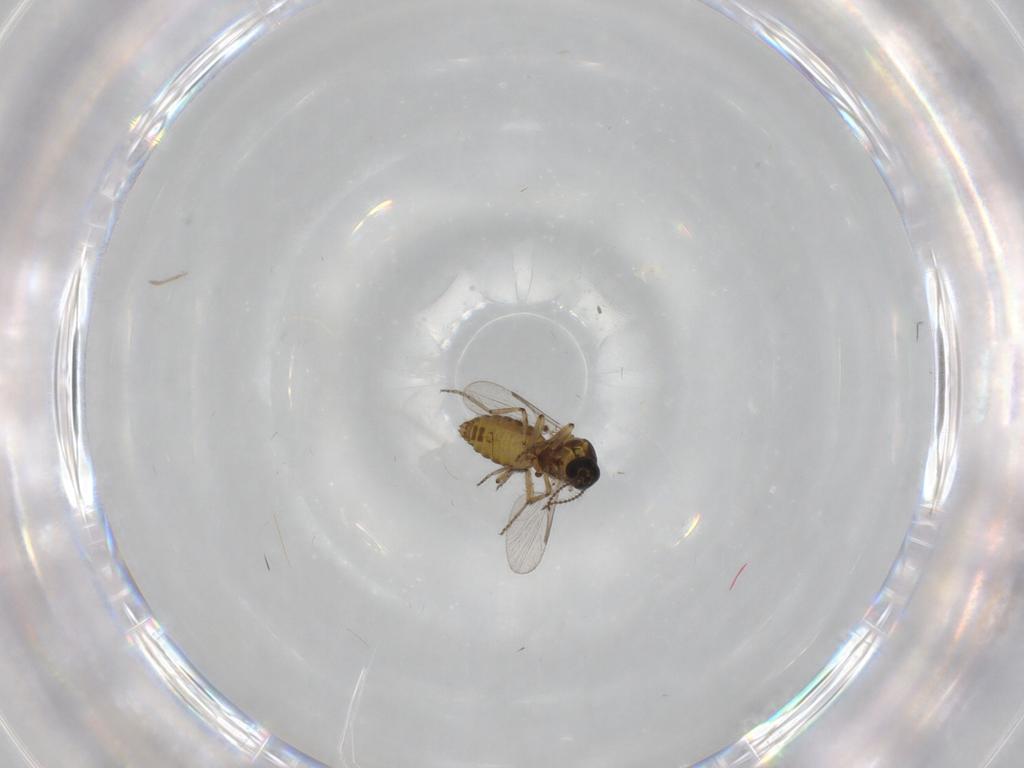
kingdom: Animalia
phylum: Arthropoda
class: Insecta
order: Diptera
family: Ceratopogonidae
